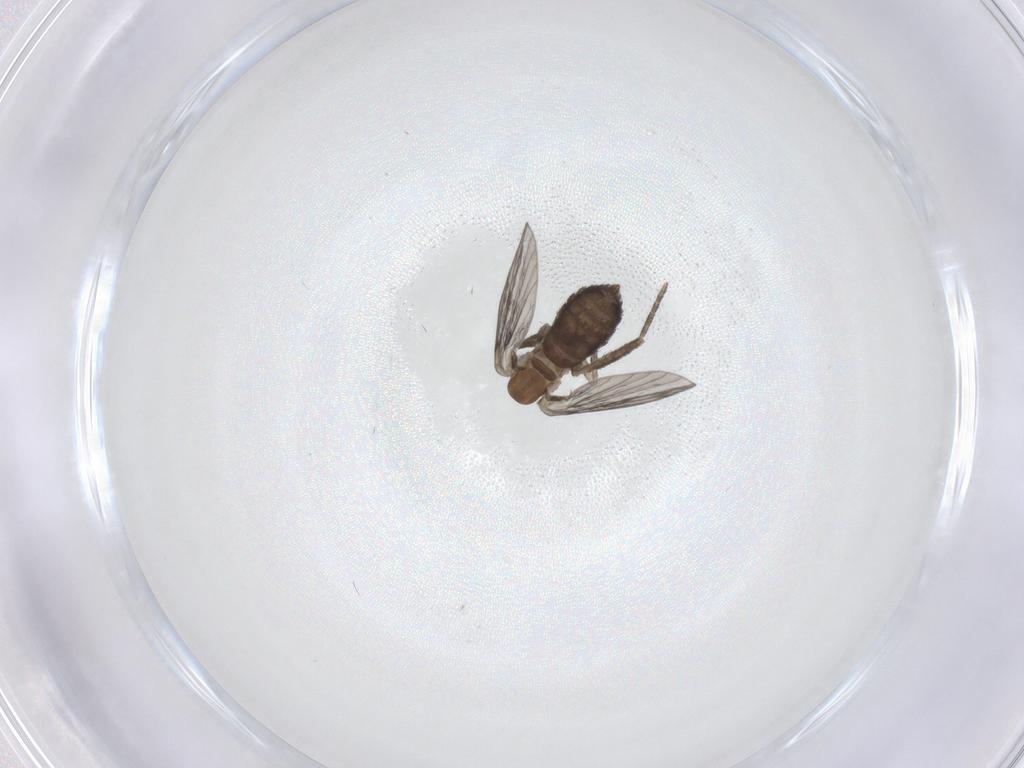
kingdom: Animalia
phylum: Arthropoda
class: Insecta
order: Diptera
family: Psychodidae
